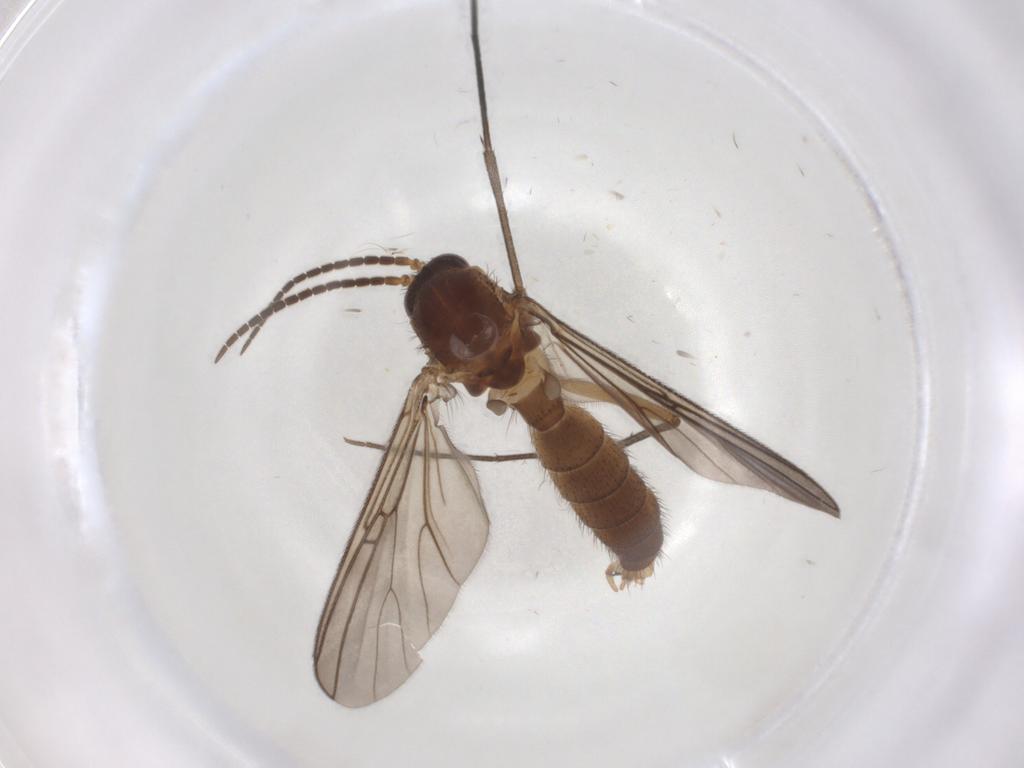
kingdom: Animalia
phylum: Arthropoda
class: Insecta
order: Diptera
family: Mycetophilidae
